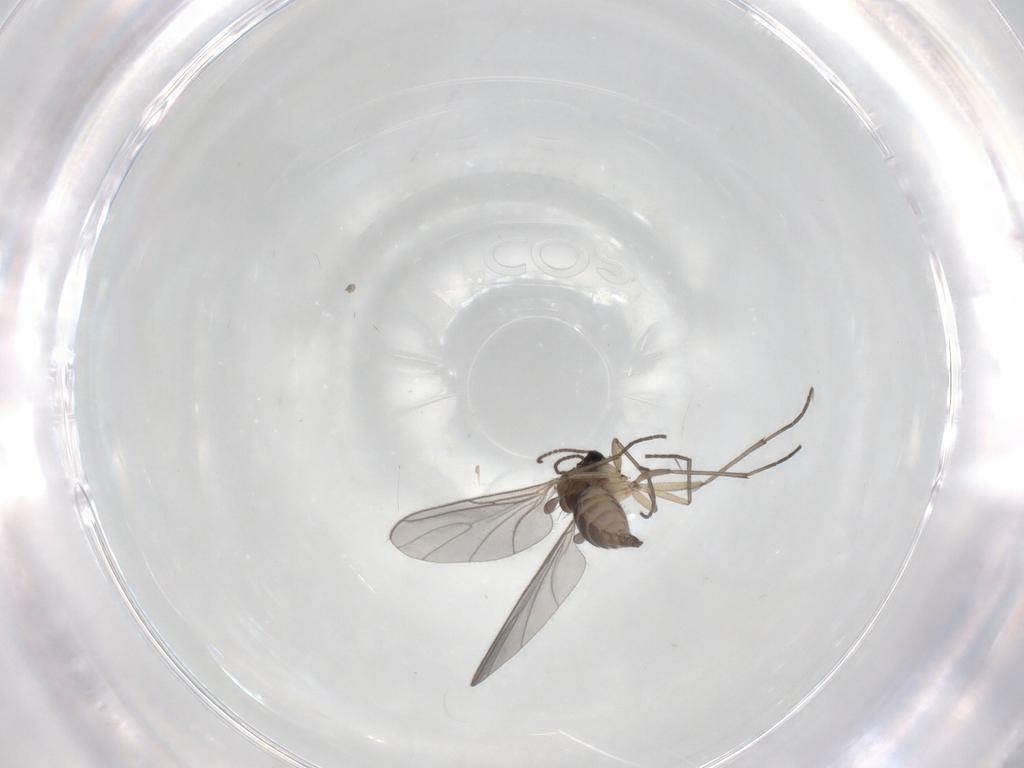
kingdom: Animalia
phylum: Arthropoda
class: Insecta
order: Diptera
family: Sciaridae
